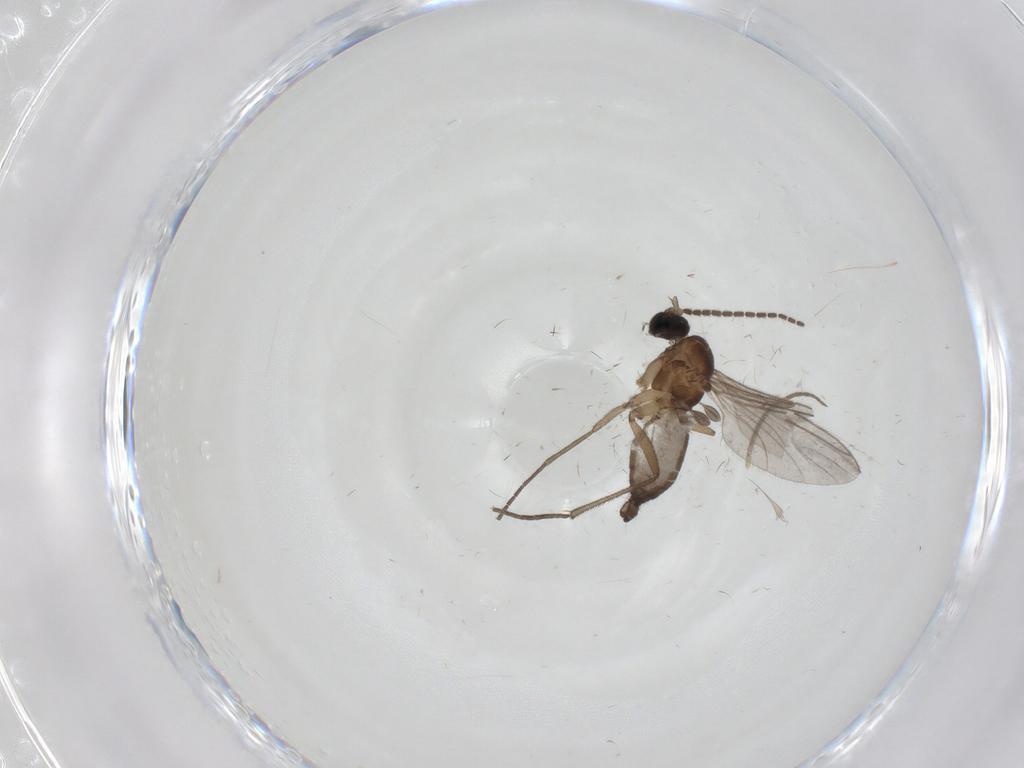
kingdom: Animalia
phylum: Arthropoda
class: Insecta
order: Diptera
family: Sciaridae
